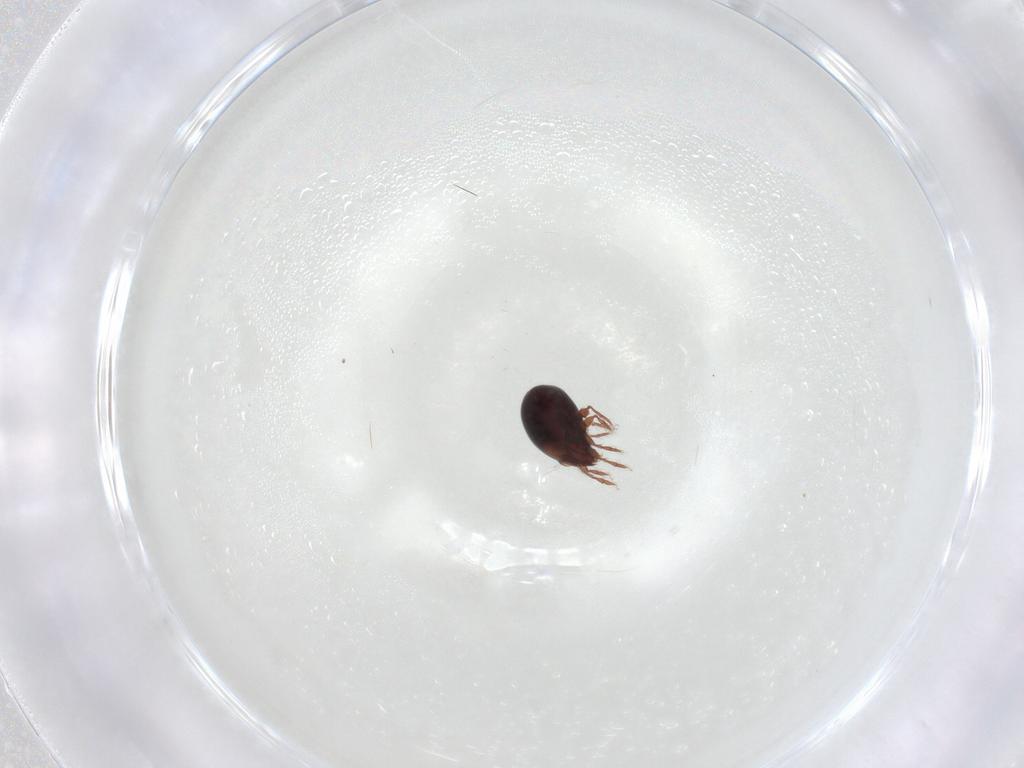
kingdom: Animalia
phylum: Arthropoda
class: Arachnida
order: Sarcoptiformes
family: Humerobatidae
